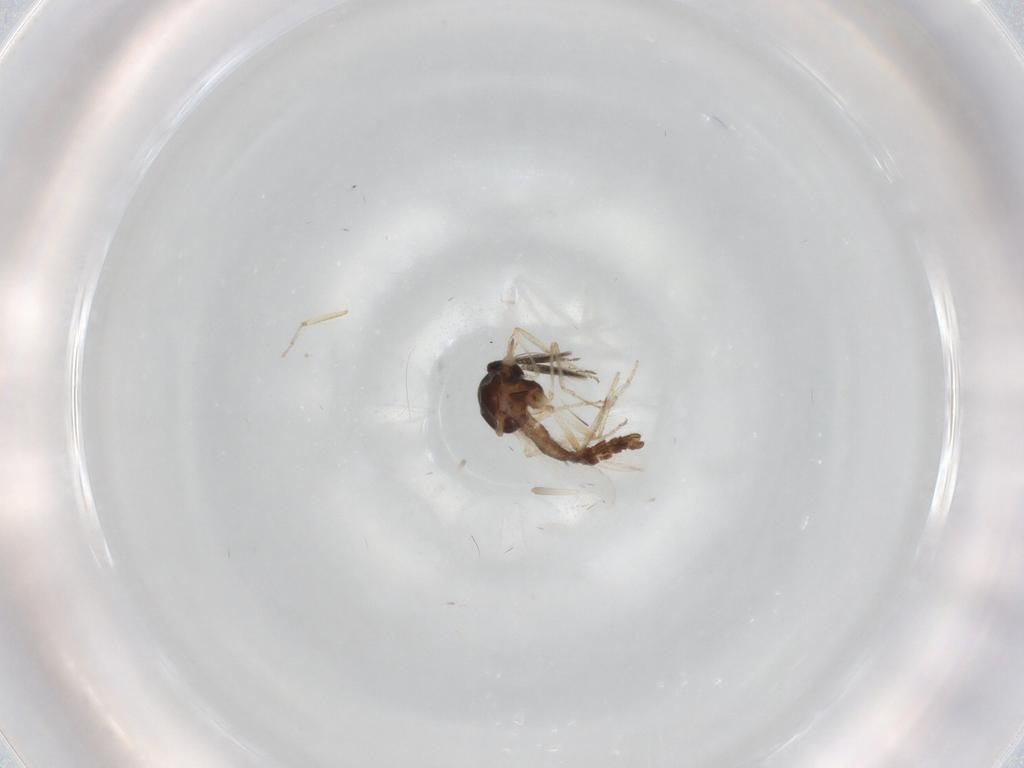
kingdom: Animalia
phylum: Arthropoda
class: Insecta
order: Diptera
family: Ceratopogonidae
